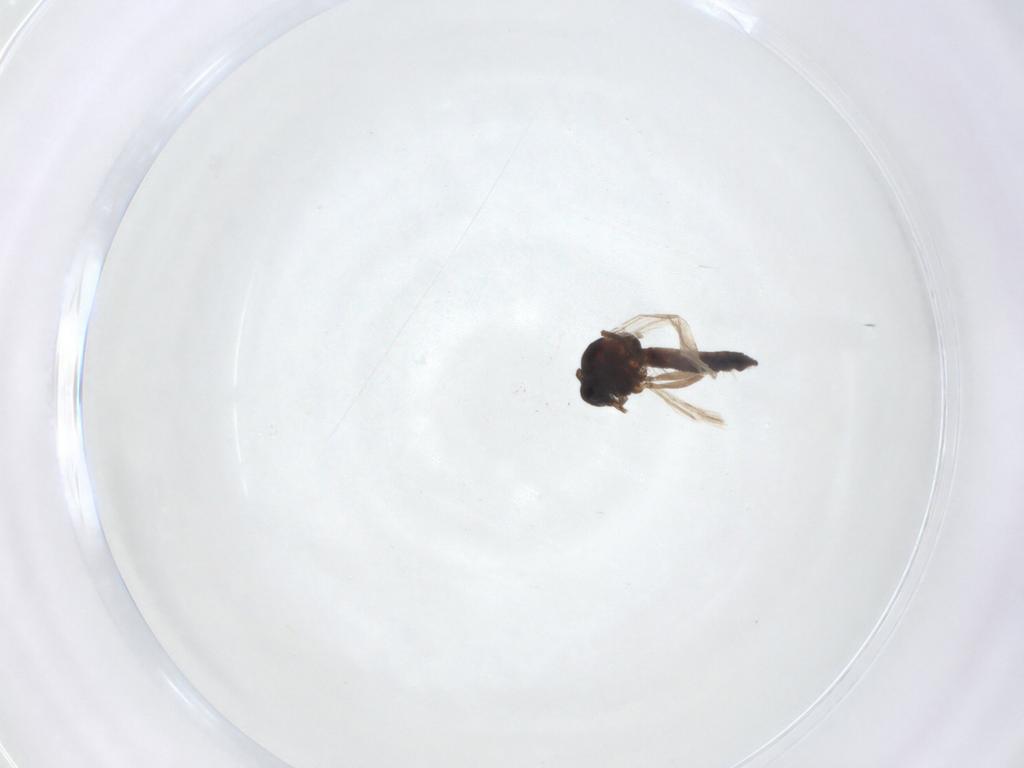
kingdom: Animalia
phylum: Arthropoda
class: Insecta
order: Diptera
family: Ceratopogonidae
